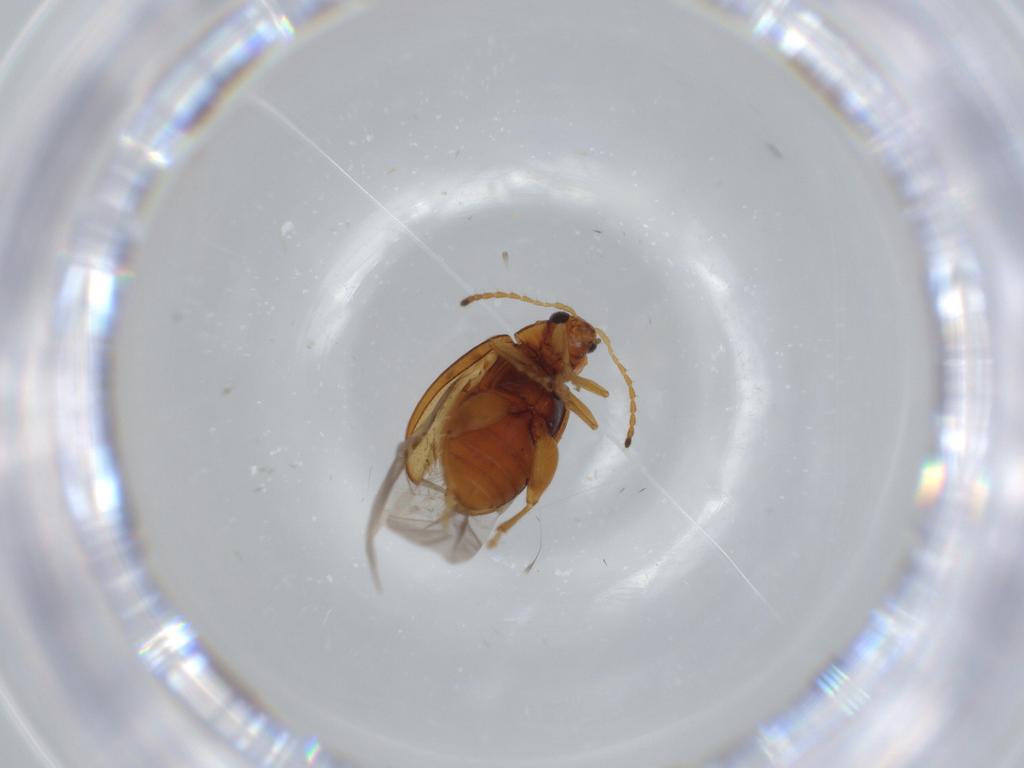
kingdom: Animalia
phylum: Arthropoda
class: Insecta
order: Coleoptera
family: Chrysomelidae
